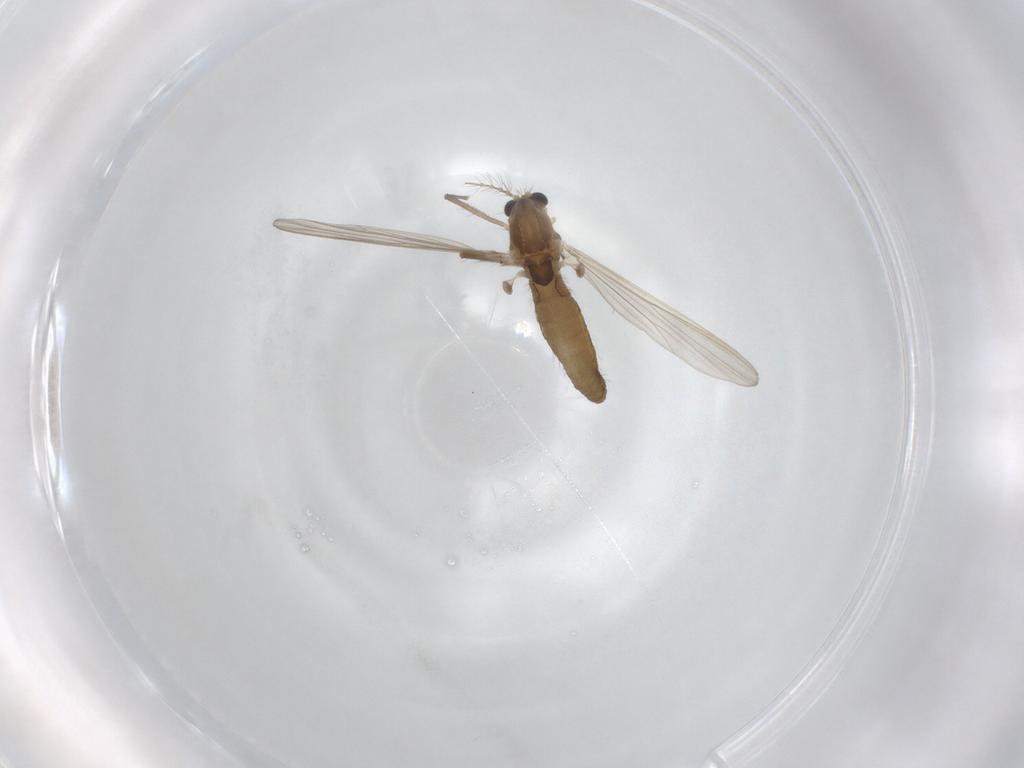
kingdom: Animalia
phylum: Arthropoda
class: Insecta
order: Diptera
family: Chironomidae
